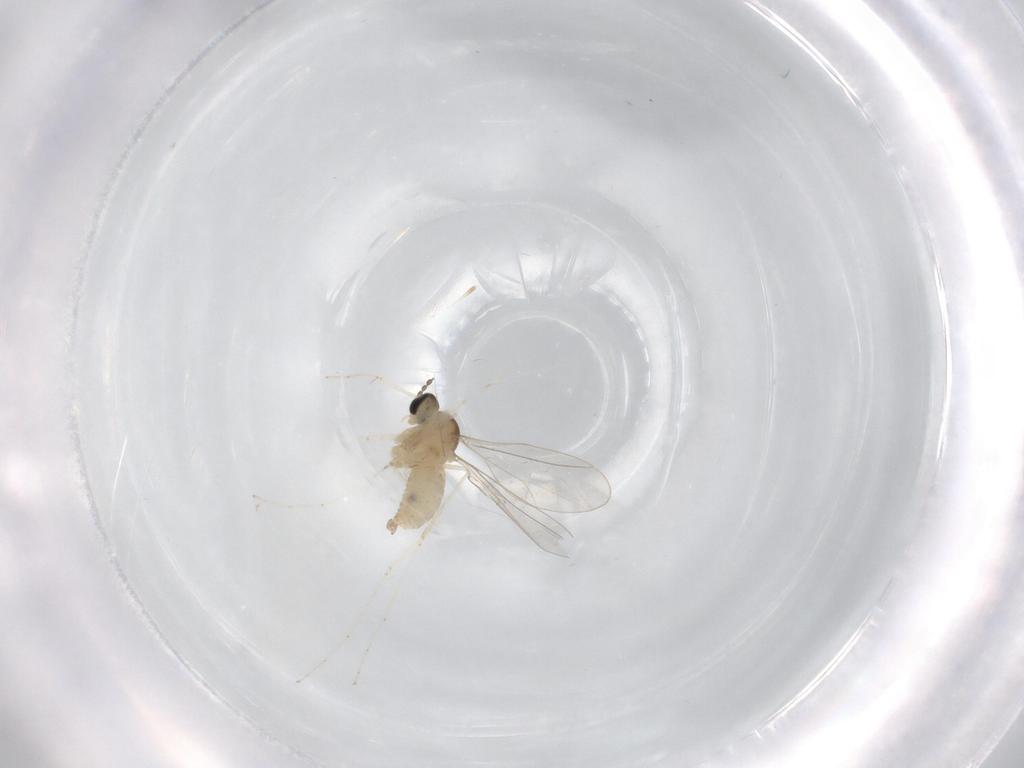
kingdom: Animalia
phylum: Arthropoda
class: Insecta
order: Diptera
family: Cecidomyiidae
